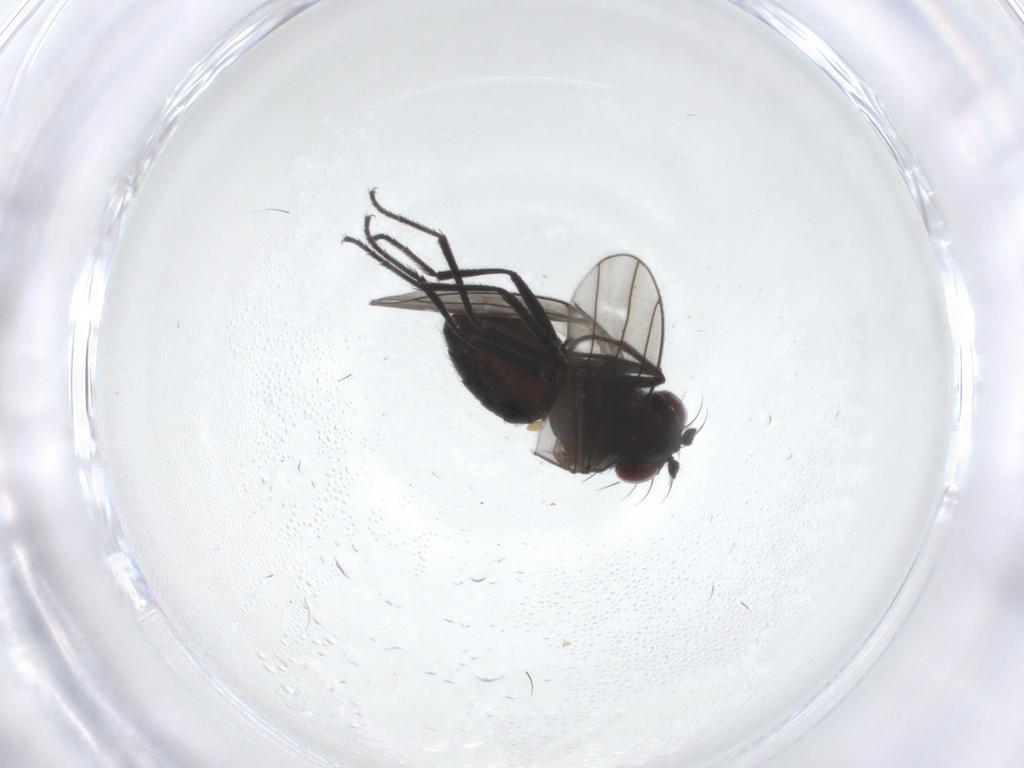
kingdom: Animalia
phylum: Arthropoda
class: Insecta
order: Diptera
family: Ephydridae
